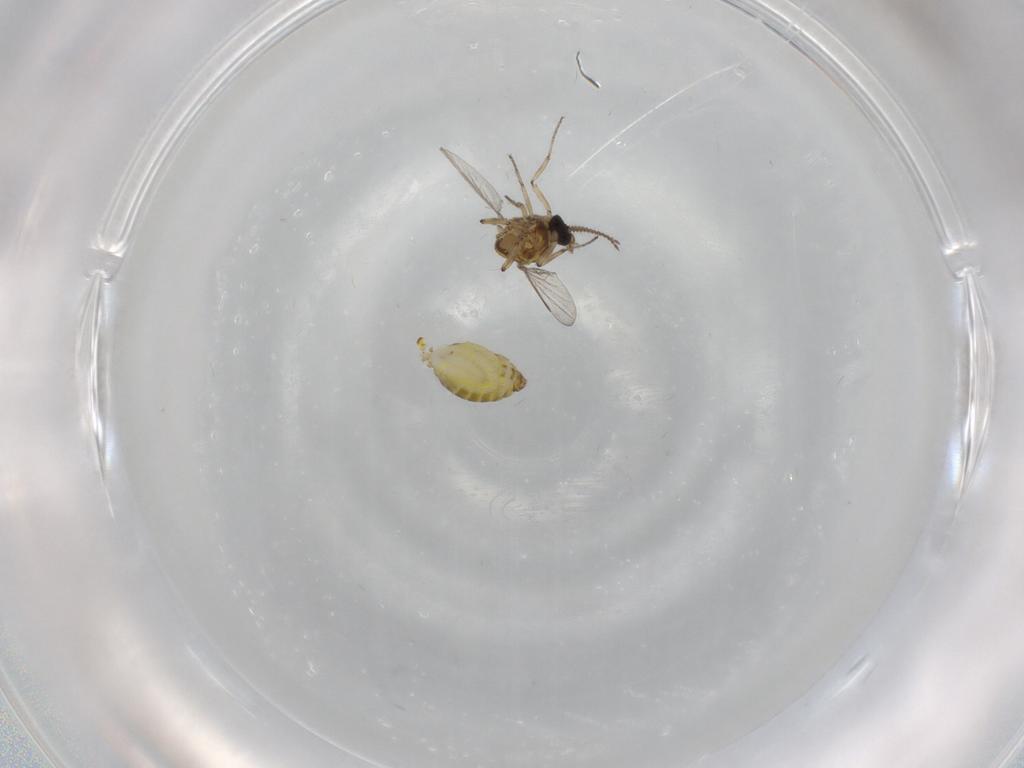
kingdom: Animalia
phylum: Arthropoda
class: Insecta
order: Diptera
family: Ceratopogonidae
